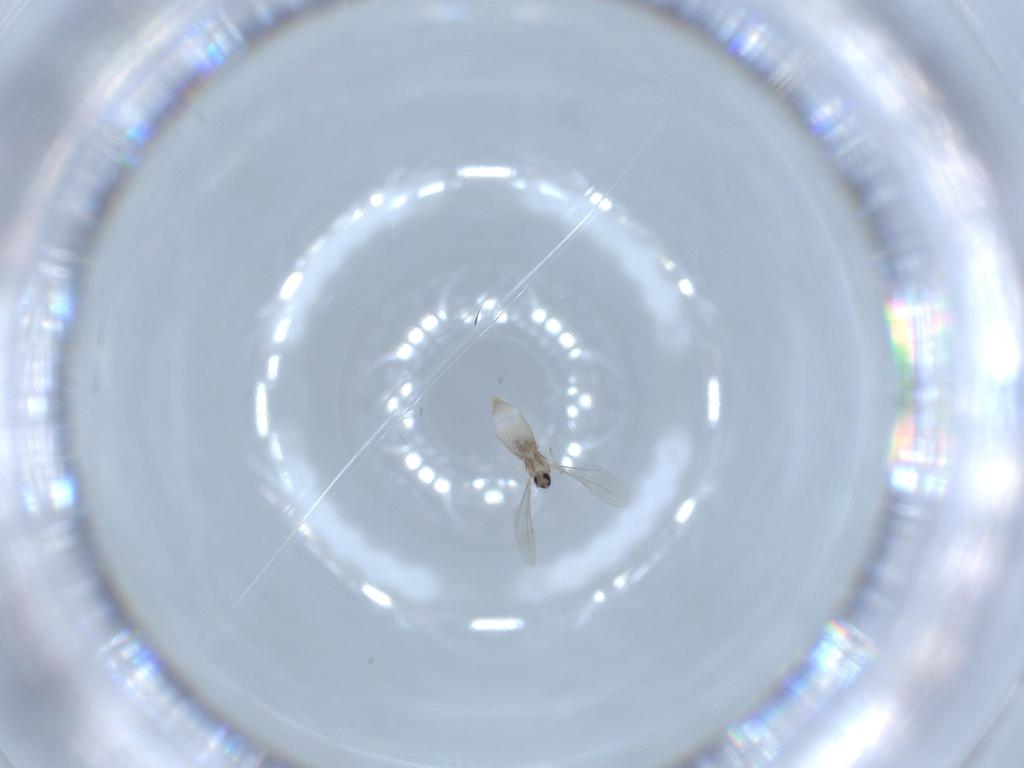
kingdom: Animalia
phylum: Arthropoda
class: Insecta
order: Diptera
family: Cecidomyiidae
